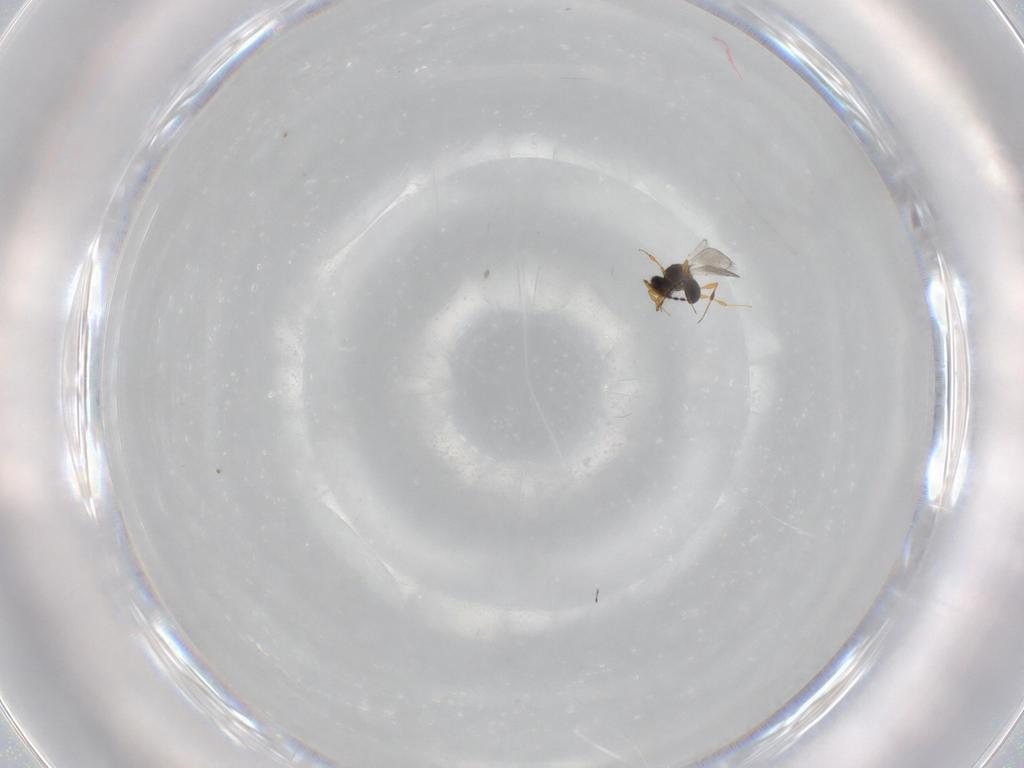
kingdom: Animalia
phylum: Arthropoda
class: Insecta
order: Hymenoptera
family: Platygastridae
